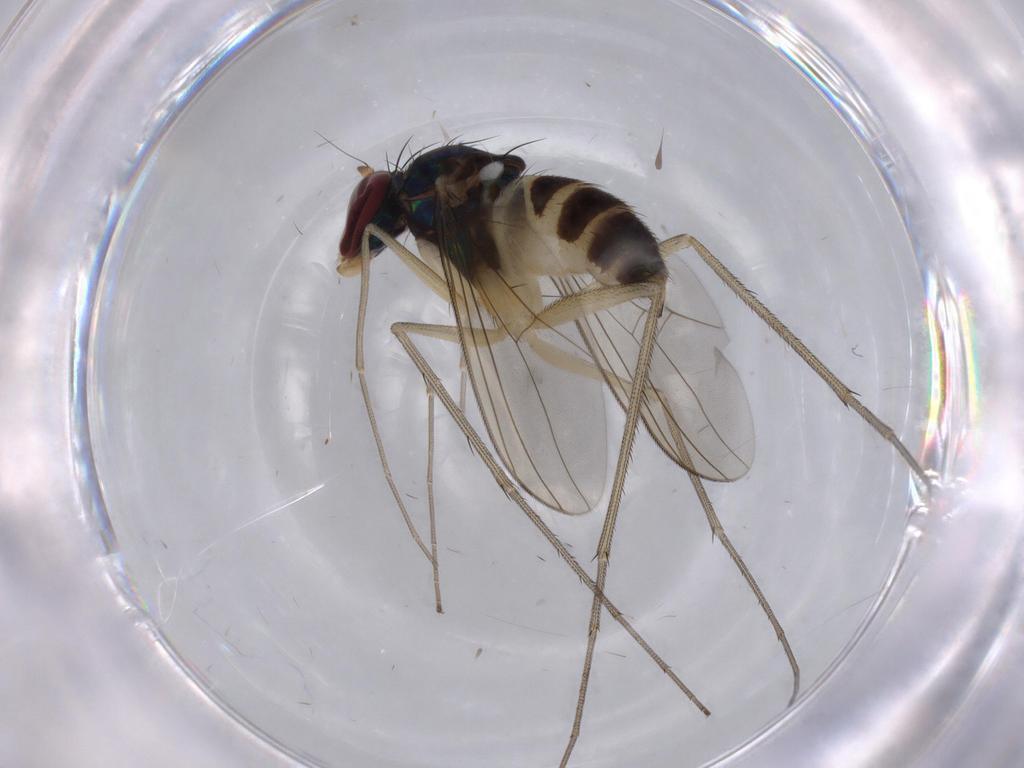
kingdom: Animalia
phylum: Arthropoda
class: Insecta
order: Diptera
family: Dolichopodidae
